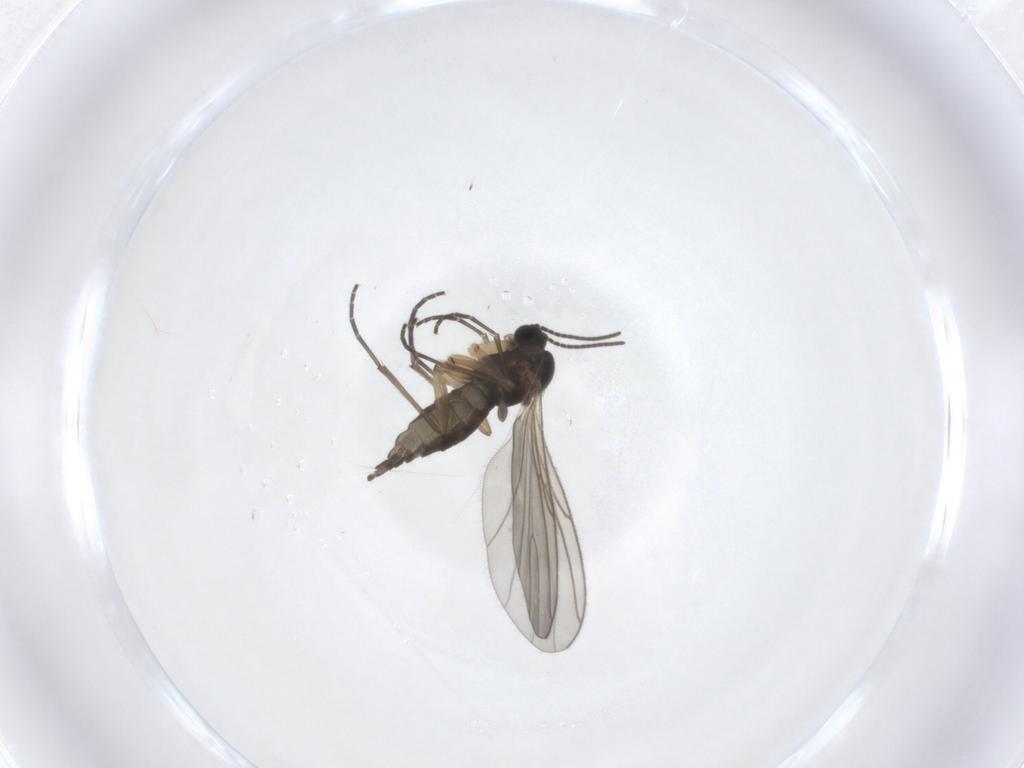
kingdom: Animalia
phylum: Arthropoda
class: Insecta
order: Diptera
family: Sciaridae
